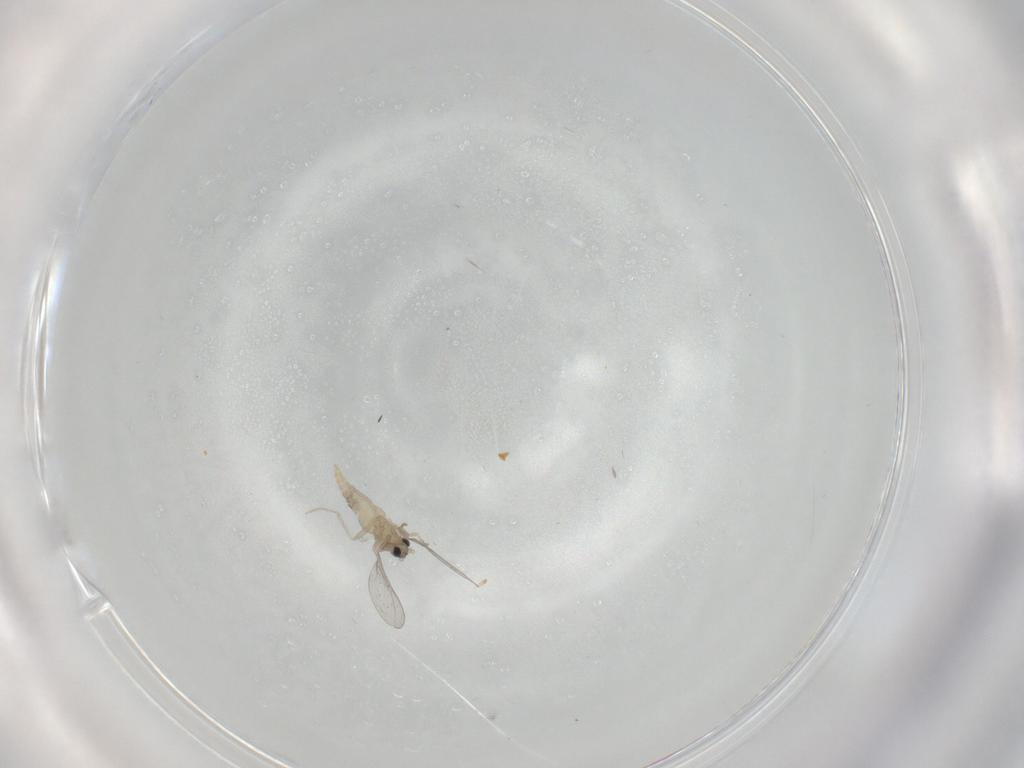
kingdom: Animalia
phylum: Arthropoda
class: Insecta
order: Diptera
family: Cecidomyiidae
